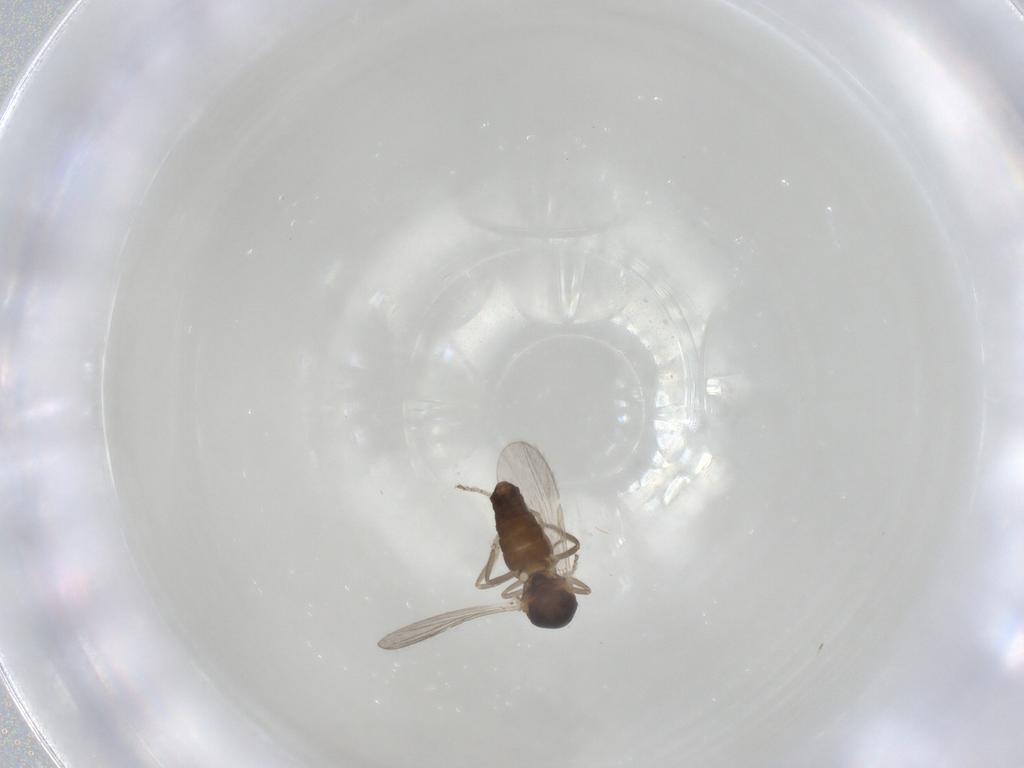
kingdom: Animalia
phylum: Arthropoda
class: Insecta
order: Diptera
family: Ceratopogonidae
